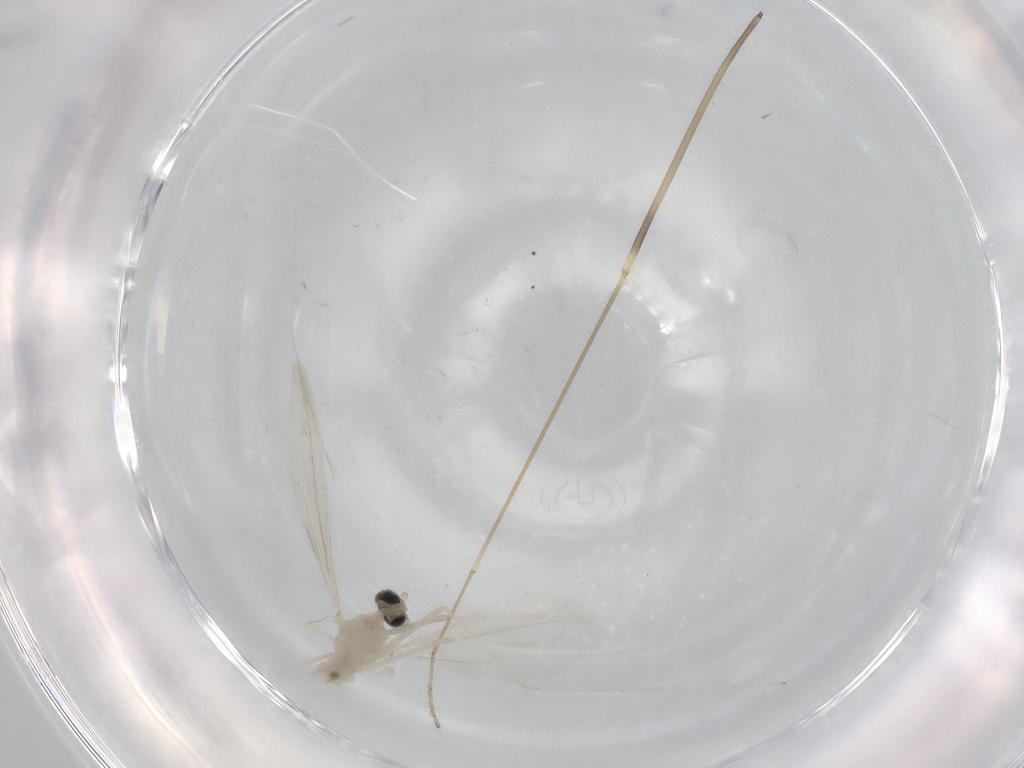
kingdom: Animalia
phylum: Arthropoda
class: Insecta
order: Diptera
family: Cecidomyiidae
